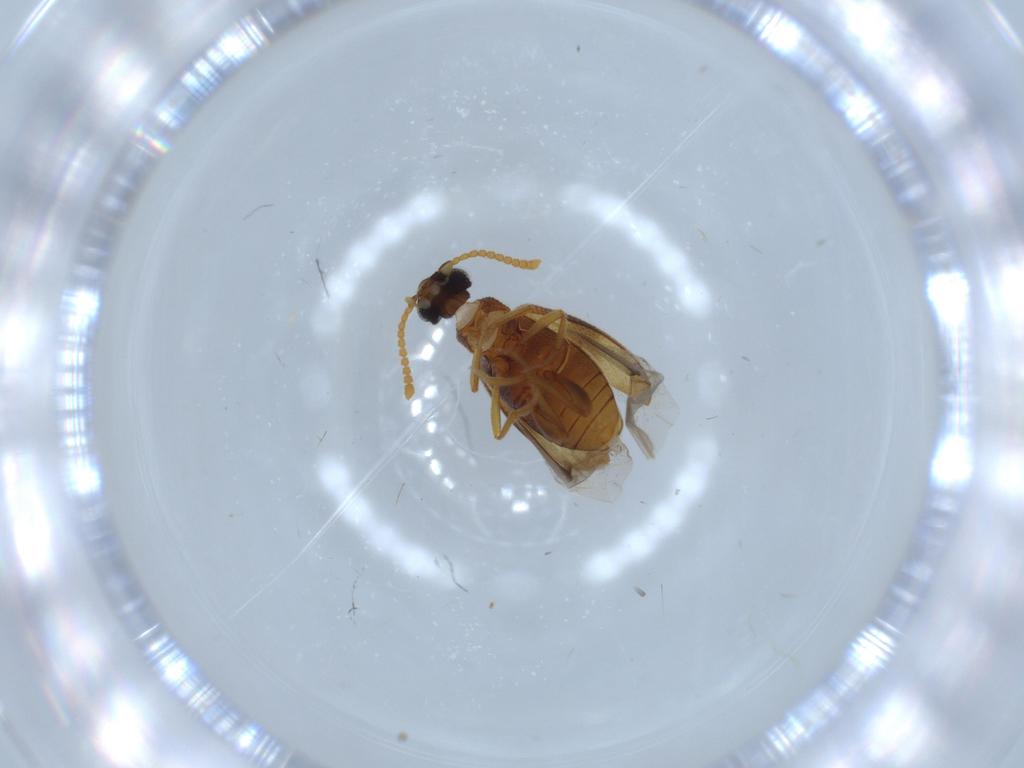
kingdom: Animalia
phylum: Arthropoda
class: Insecta
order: Coleoptera
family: Aderidae
